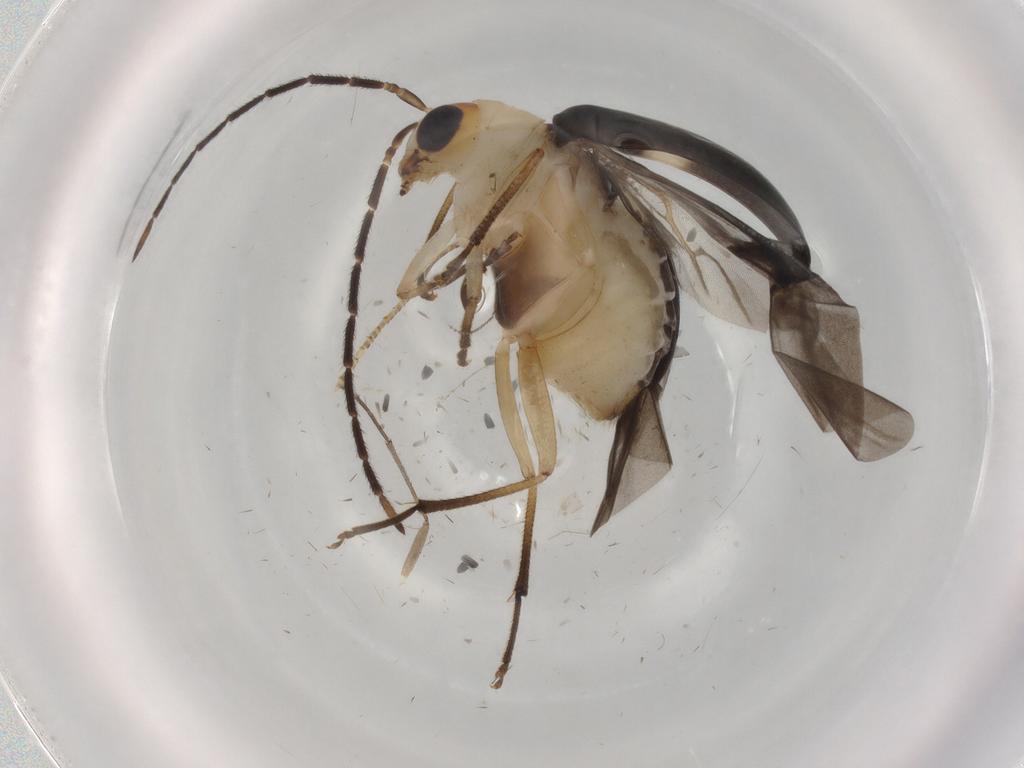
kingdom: Animalia
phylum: Arthropoda
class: Insecta
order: Coleoptera
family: Chrysomelidae
